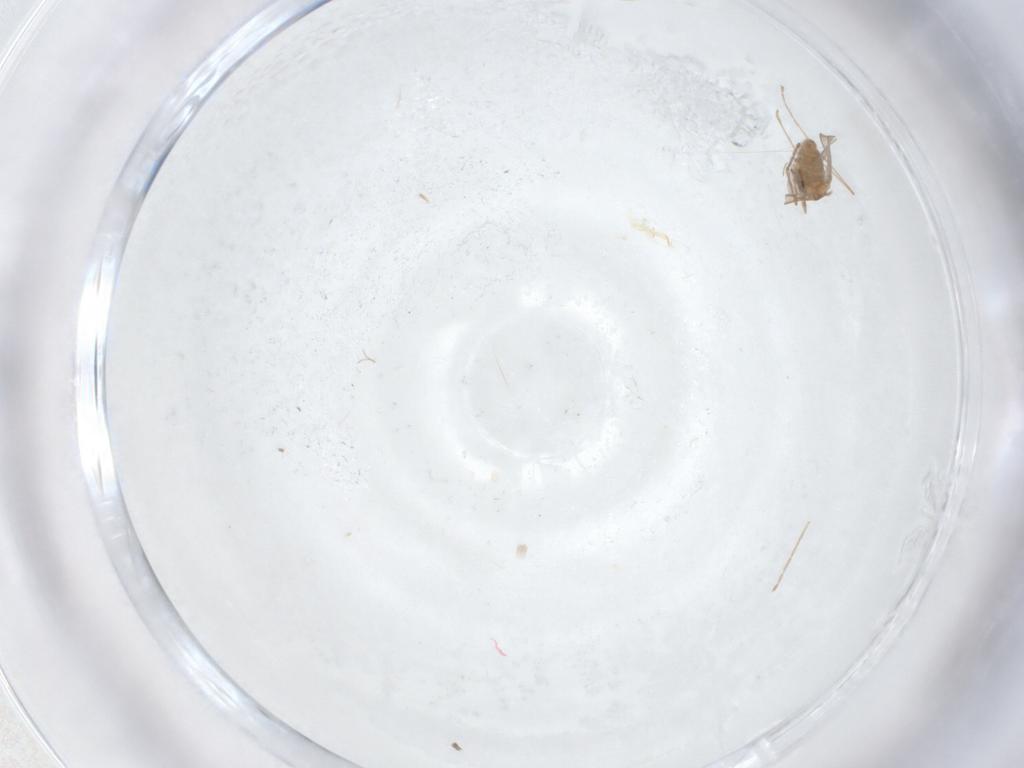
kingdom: Animalia
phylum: Arthropoda
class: Insecta
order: Diptera
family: Cecidomyiidae
